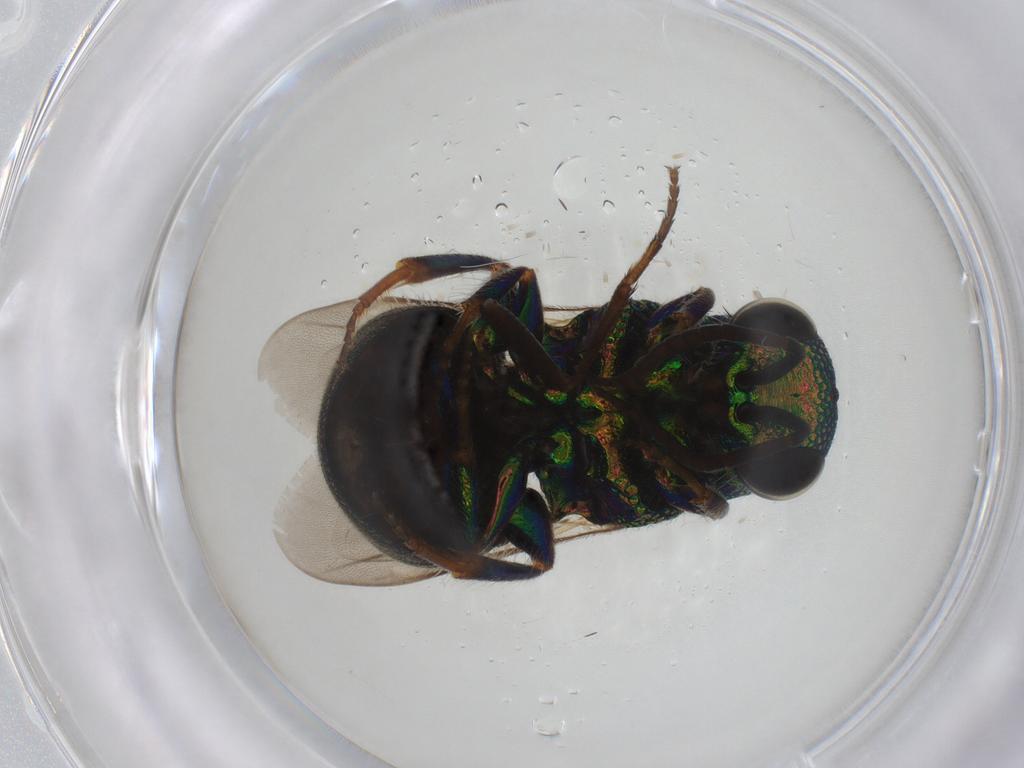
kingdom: Animalia
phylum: Arthropoda
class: Insecta
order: Hymenoptera
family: Chrysididae
